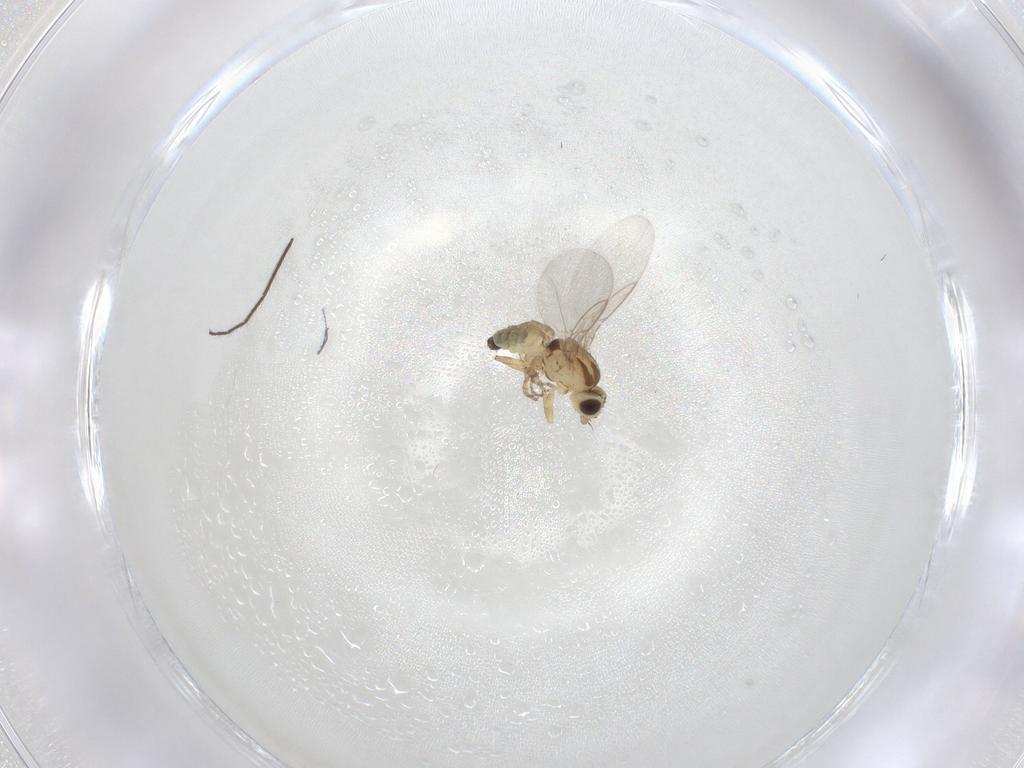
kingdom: Animalia
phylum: Arthropoda
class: Insecta
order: Diptera
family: Agromyzidae
